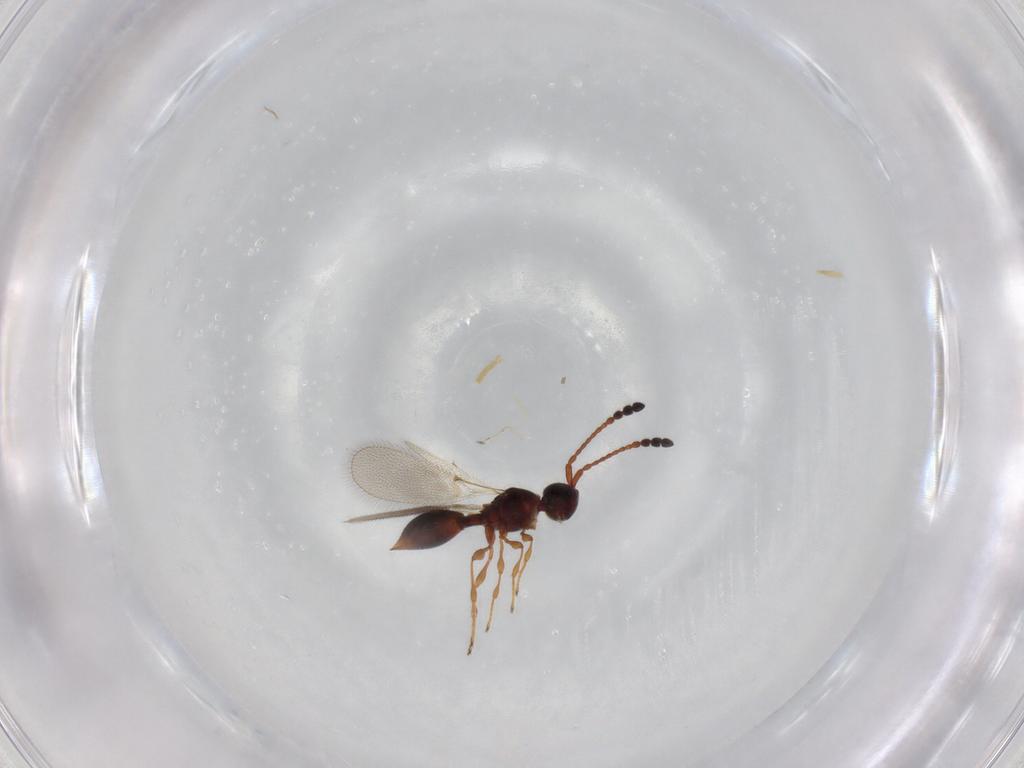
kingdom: Animalia
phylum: Arthropoda
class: Insecta
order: Hymenoptera
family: Diapriidae
